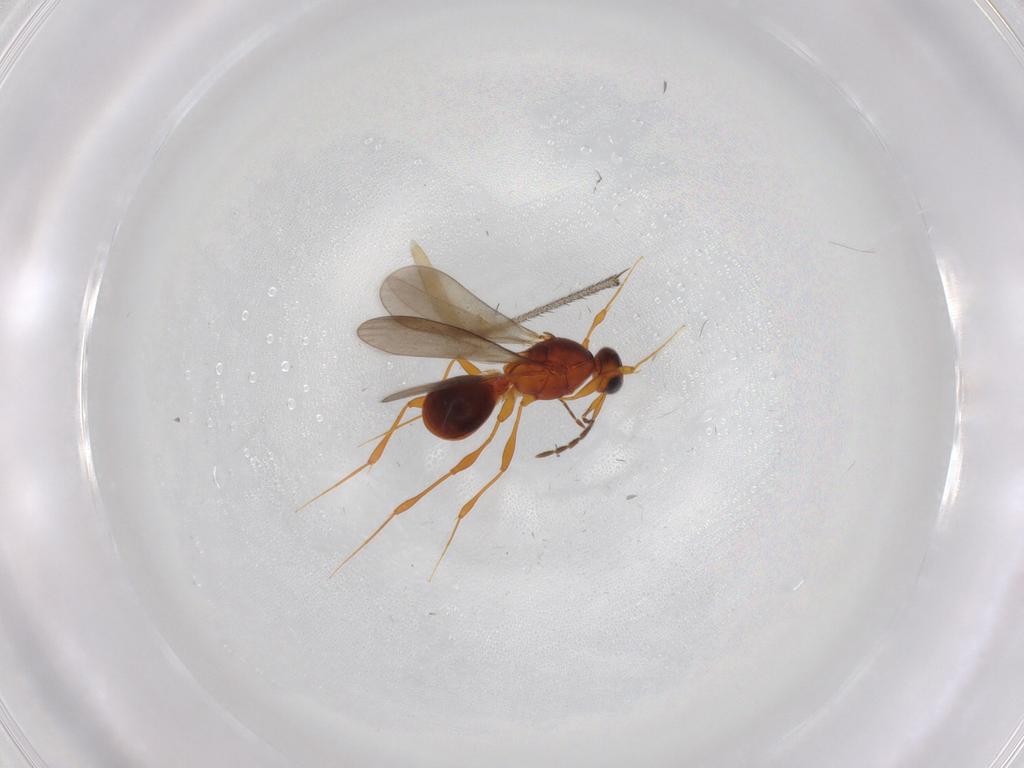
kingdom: Animalia
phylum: Arthropoda
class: Insecta
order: Hymenoptera
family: Platygastridae
